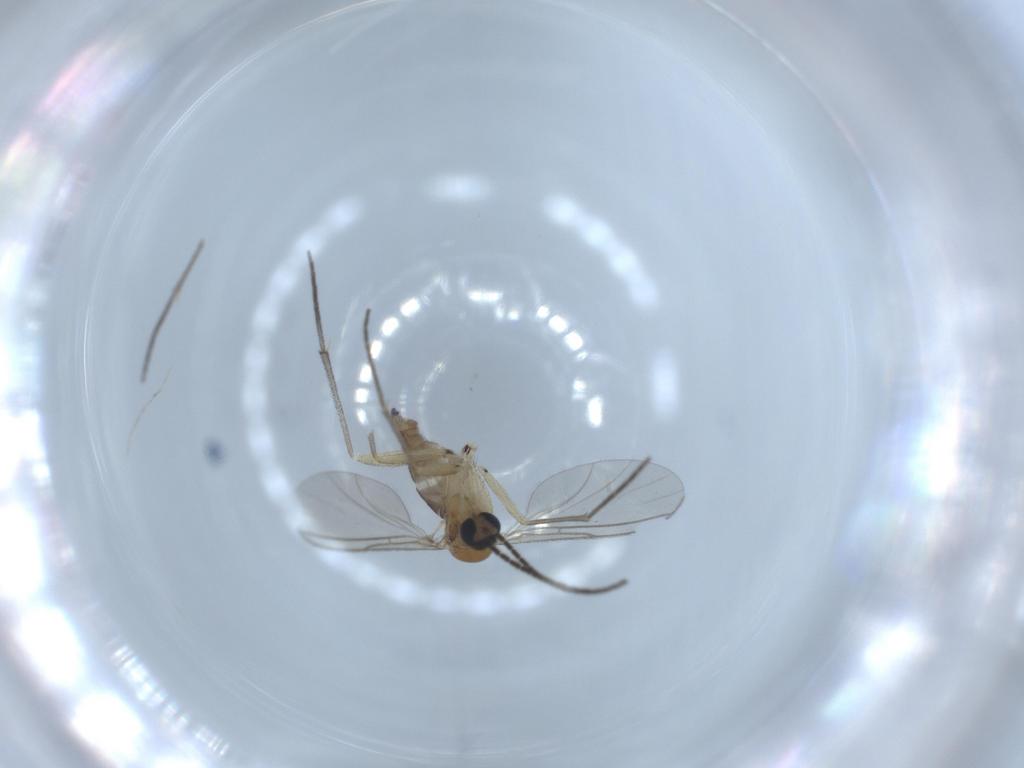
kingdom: Animalia
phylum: Arthropoda
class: Insecta
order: Diptera
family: Sciaridae
